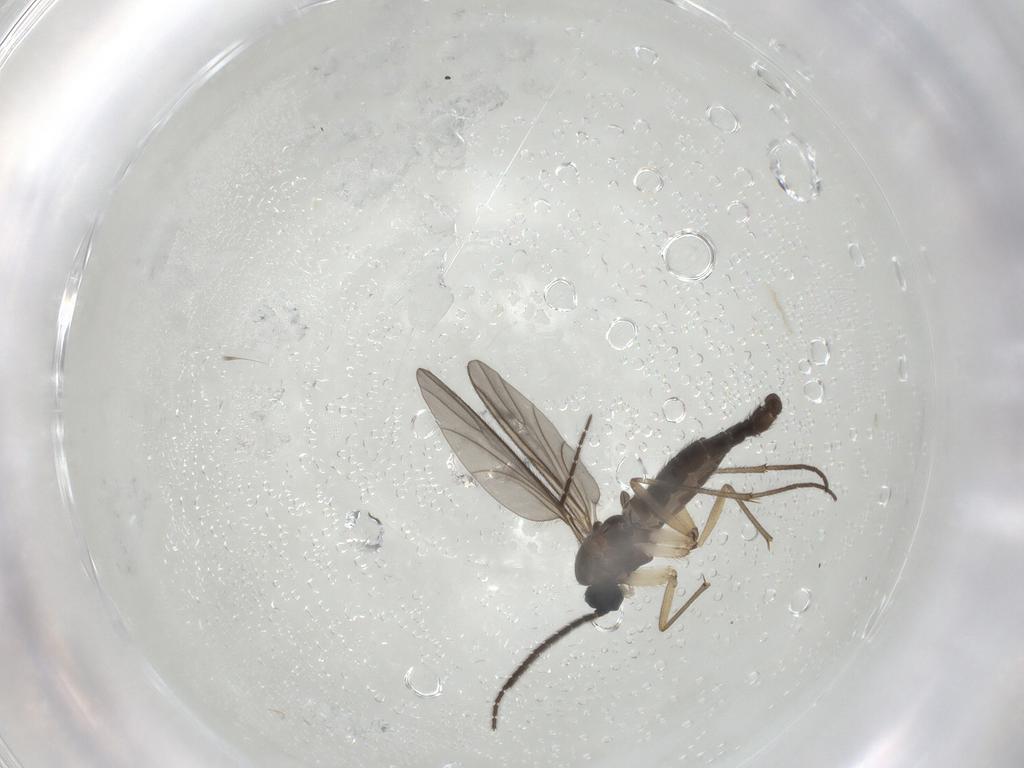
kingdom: Animalia
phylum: Arthropoda
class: Insecta
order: Diptera
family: Sciaridae
